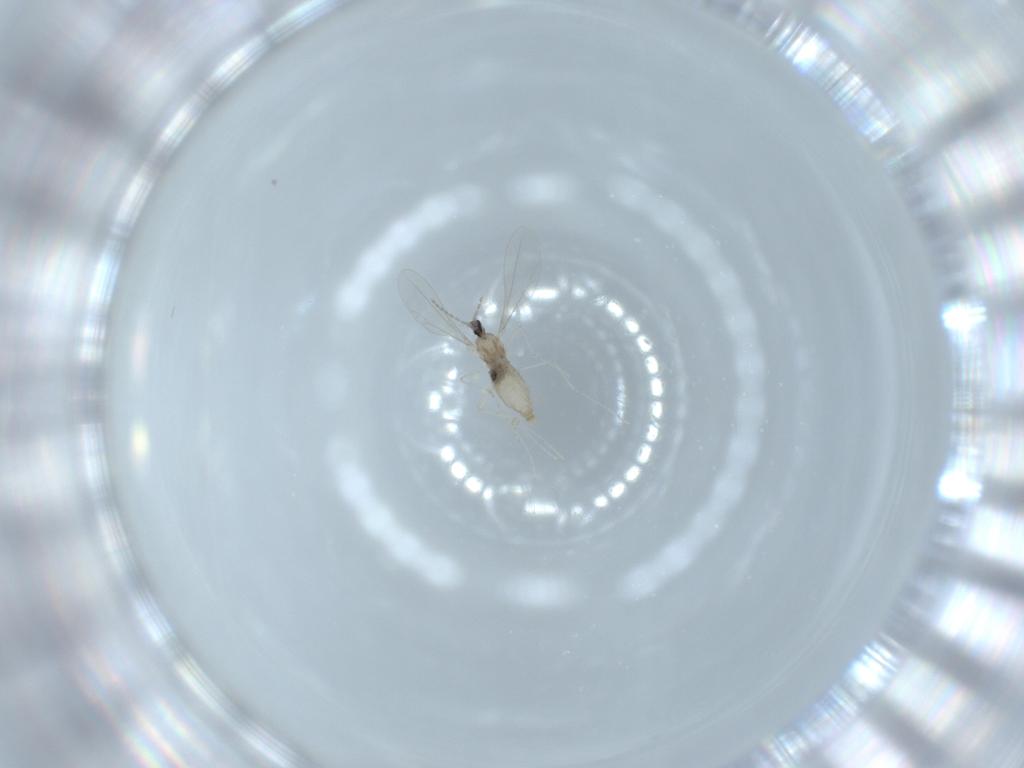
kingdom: Animalia
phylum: Arthropoda
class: Insecta
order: Diptera
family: Cecidomyiidae
